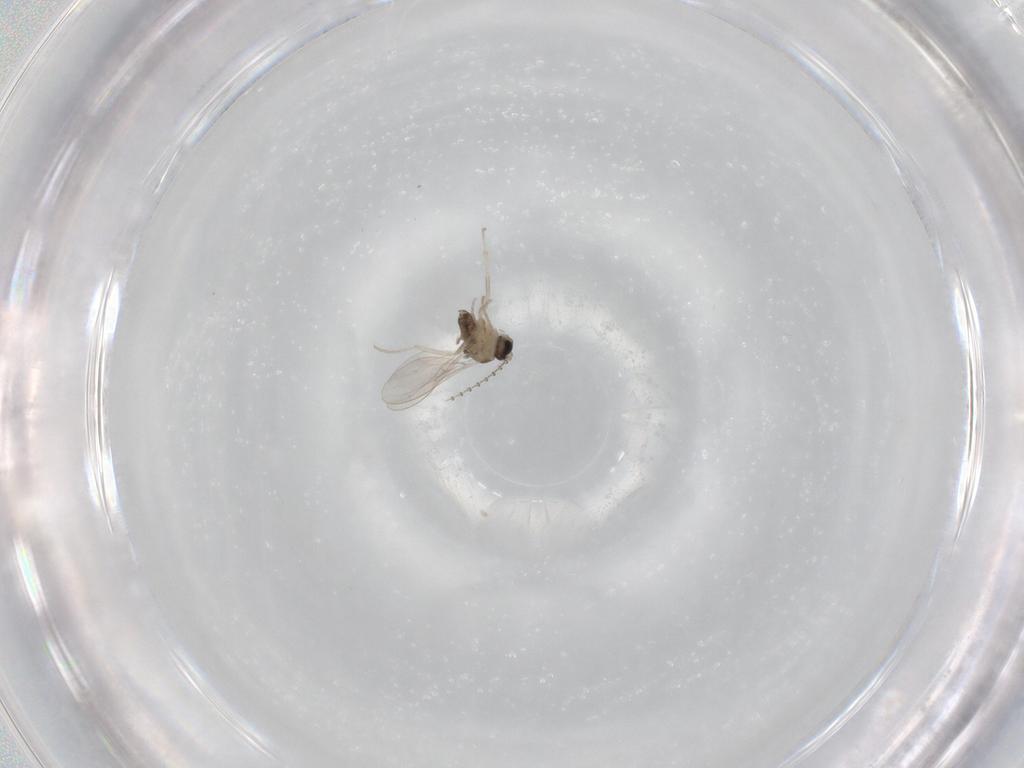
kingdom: Animalia
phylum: Arthropoda
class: Insecta
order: Diptera
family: Cecidomyiidae
